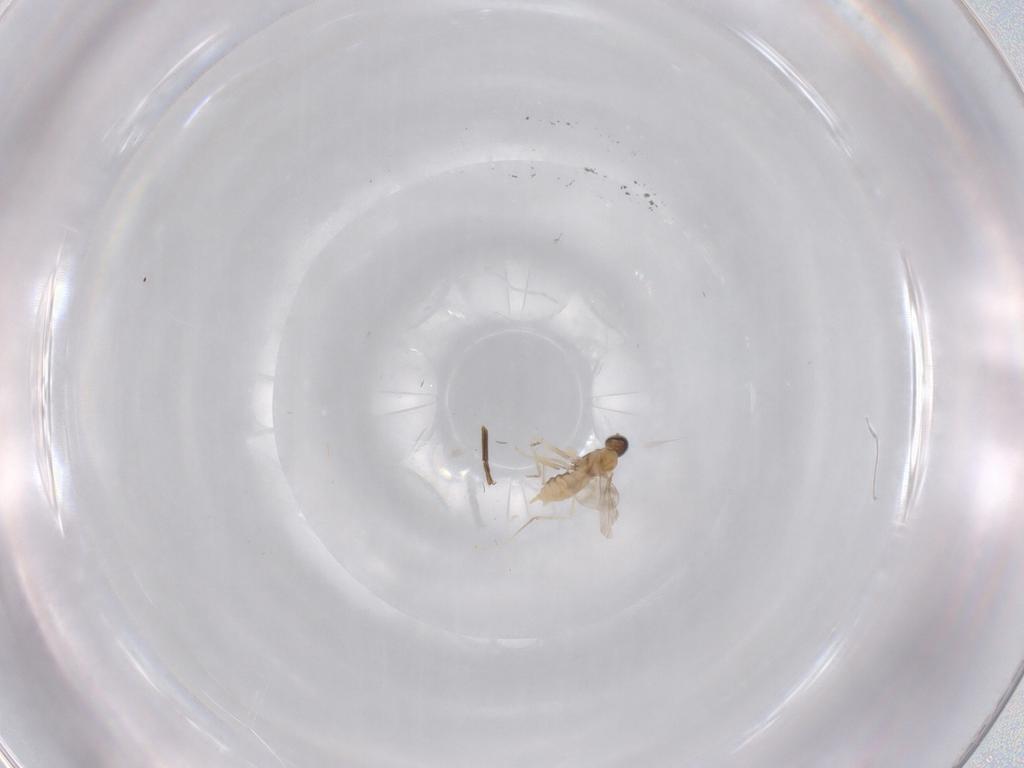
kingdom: Animalia
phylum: Arthropoda
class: Insecta
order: Diptera
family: Cecidomyiidae
